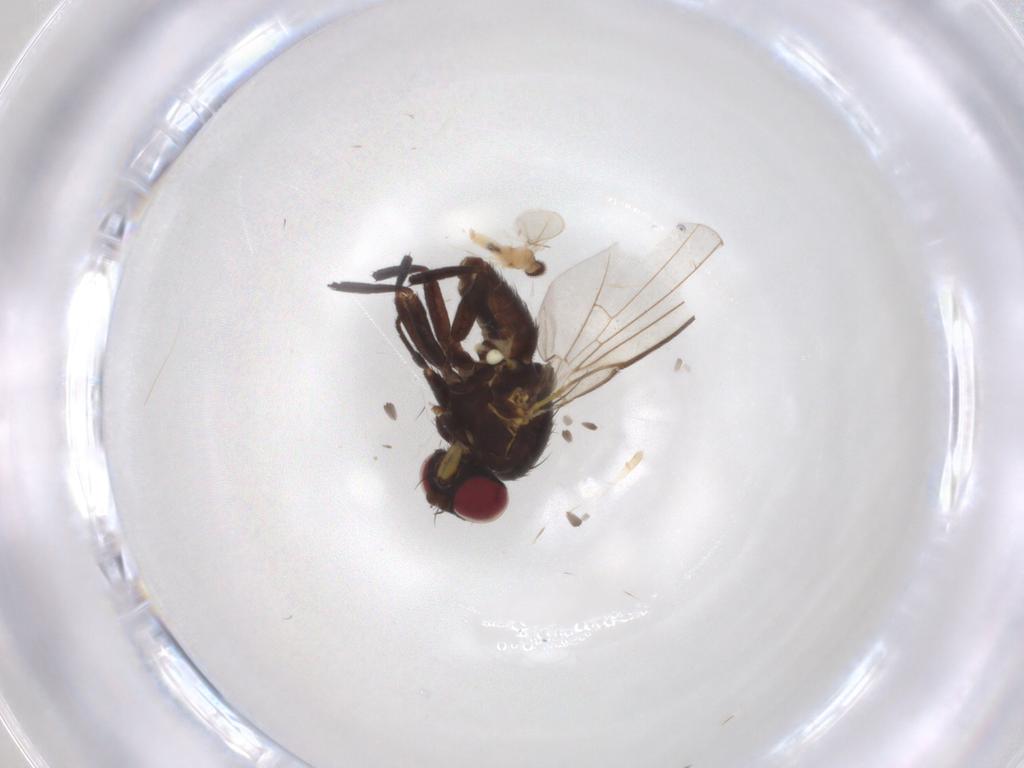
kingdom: Animalia
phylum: Arthropoda
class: Insecta
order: Diptera
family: Agromyzidae
